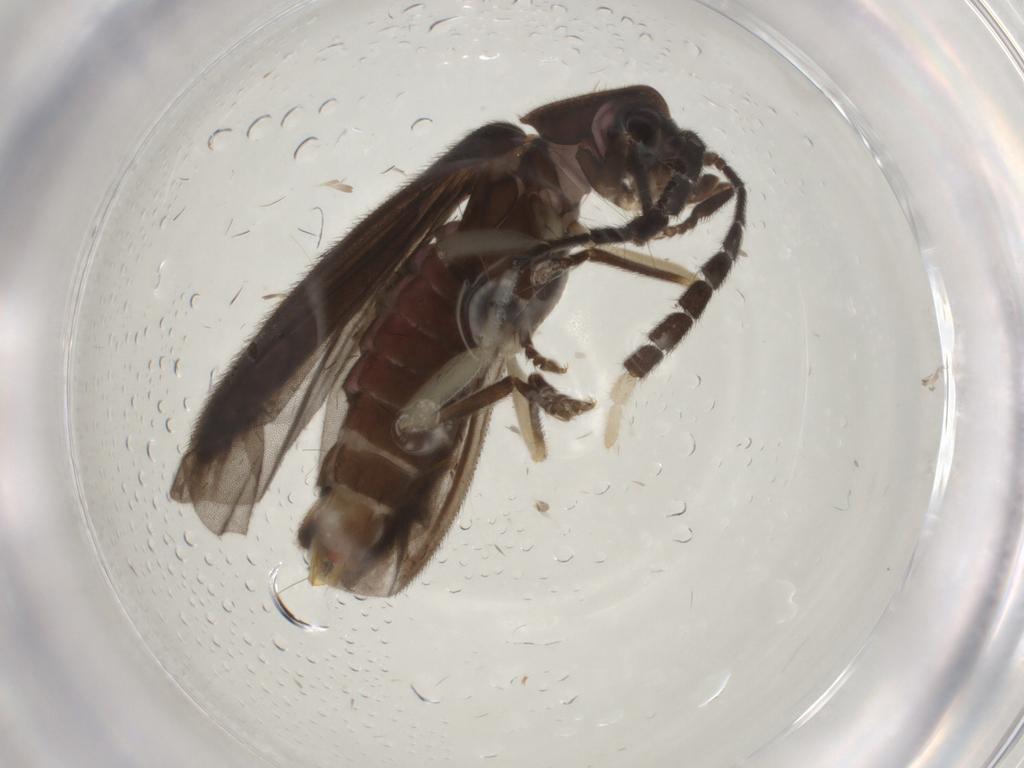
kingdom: Animalia
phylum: Arthropoda
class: Insecta
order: Coleoptera
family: Lampyridae
